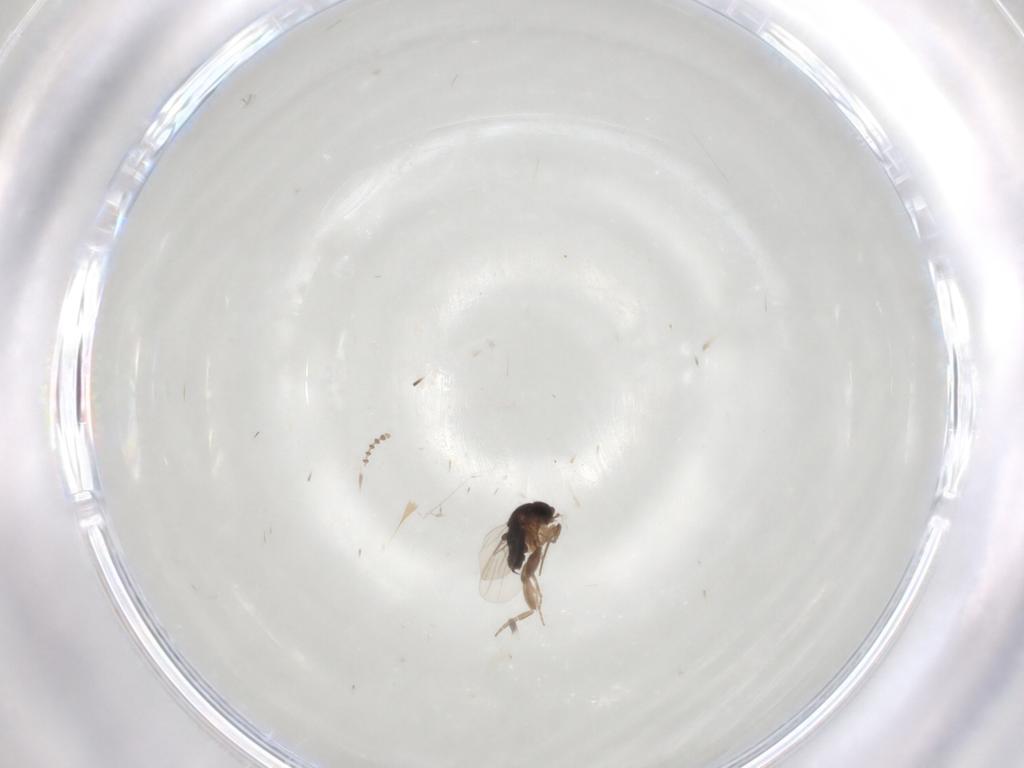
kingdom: Animalia
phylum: Arthropoda
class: Insecta
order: Diptera
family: Phoridae
